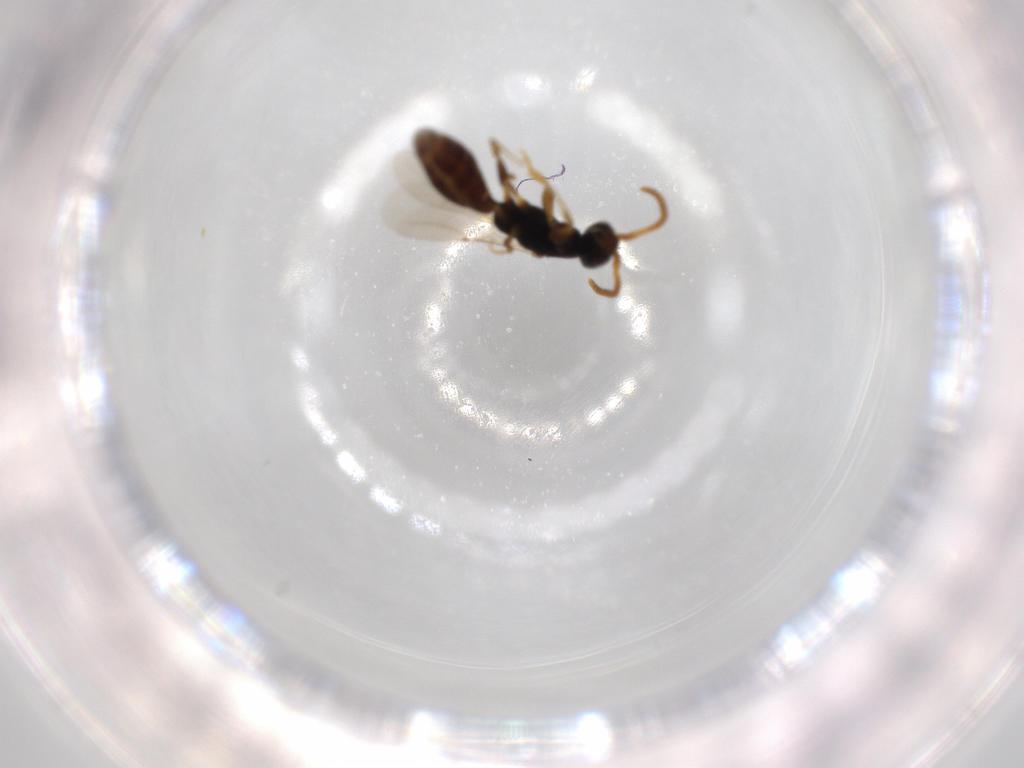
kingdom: Animalia
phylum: Arthropoda
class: Insecta
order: Hymenoptera
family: Bethylidae
